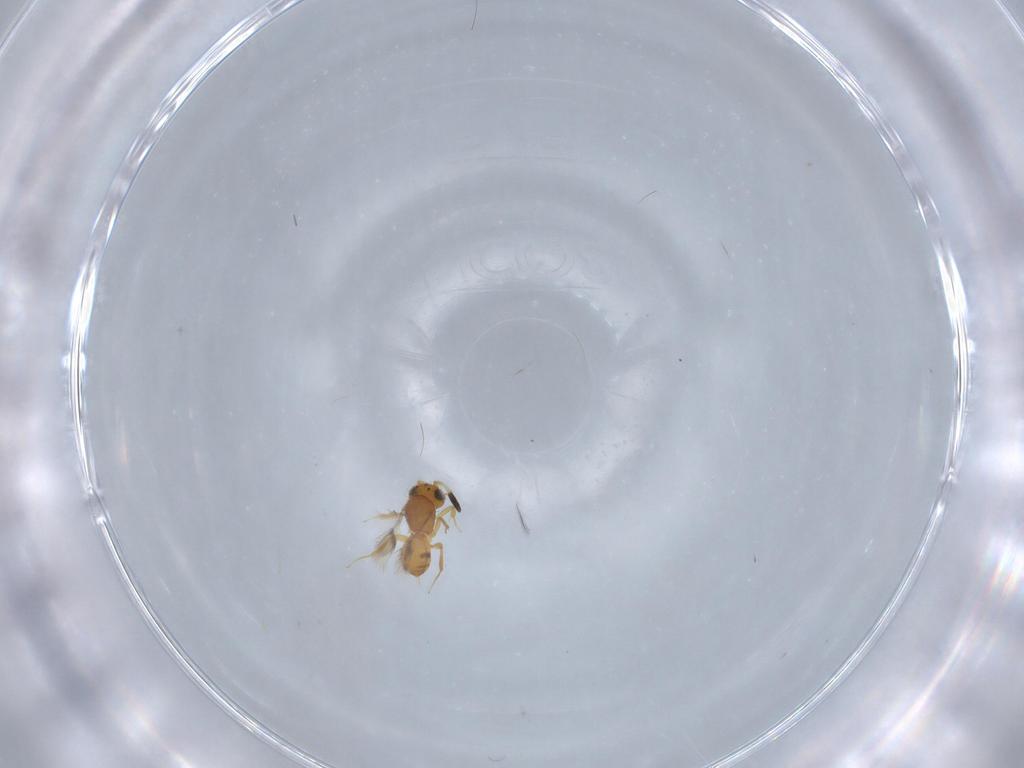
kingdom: Animalia
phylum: Arthropoda
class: Insecta
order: Hymenoptera
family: Scelionidae
